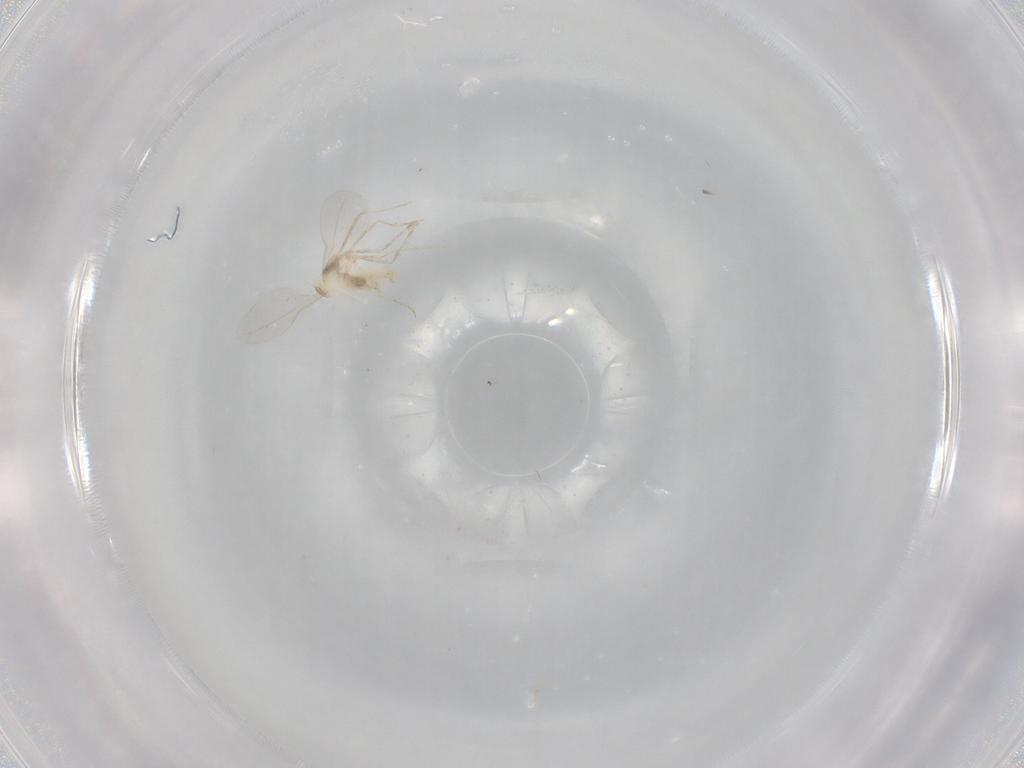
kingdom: Animalia
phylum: Arthropoda
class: Insecta
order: Diptera
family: Cecidomyiidae
